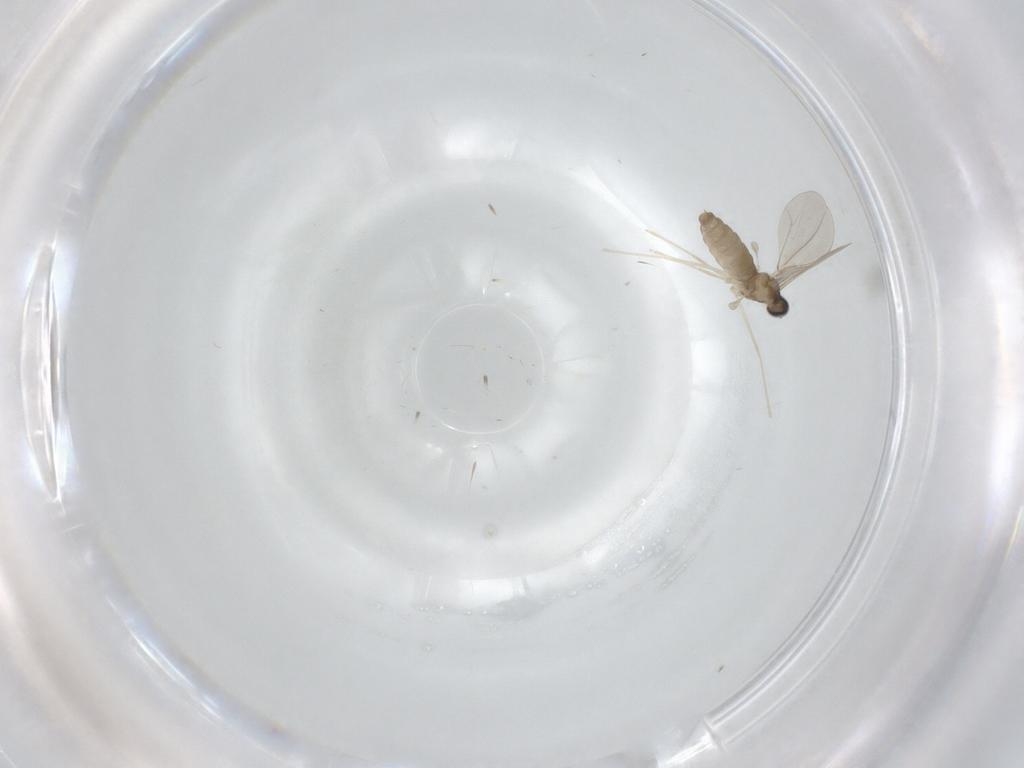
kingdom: Animalia
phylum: Arthropoda
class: Insecta
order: Diptera
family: Cecidomyiidae
